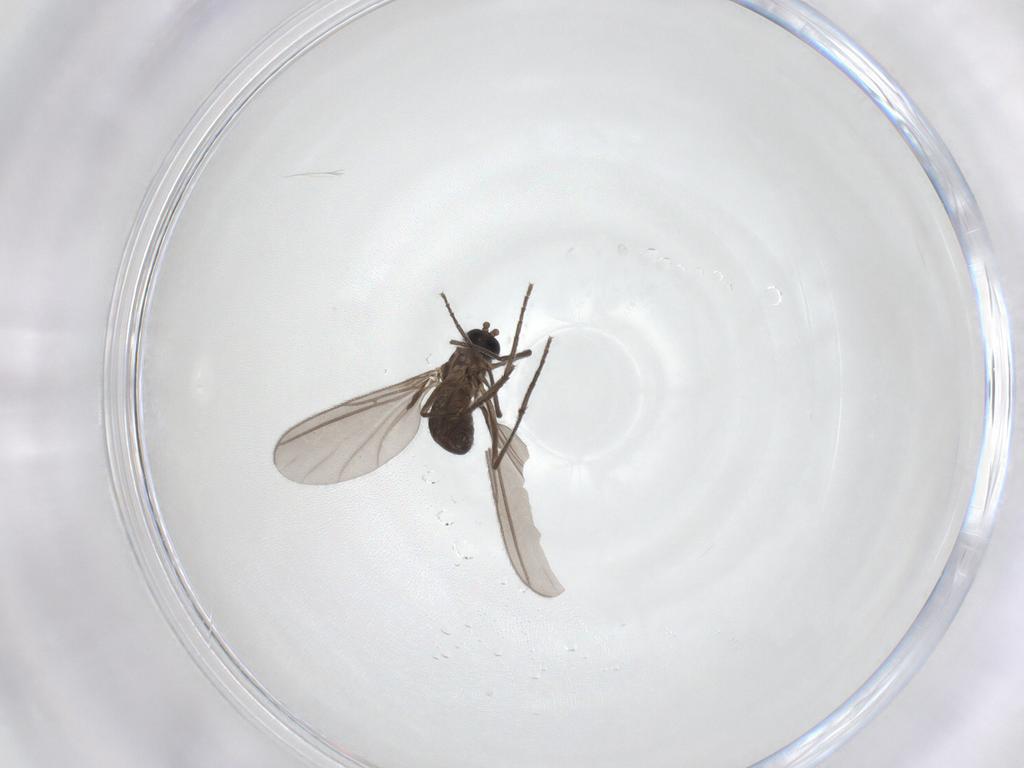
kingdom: Animalia
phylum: Arthropoda
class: Insecta
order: Diptera
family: Sciaridae
